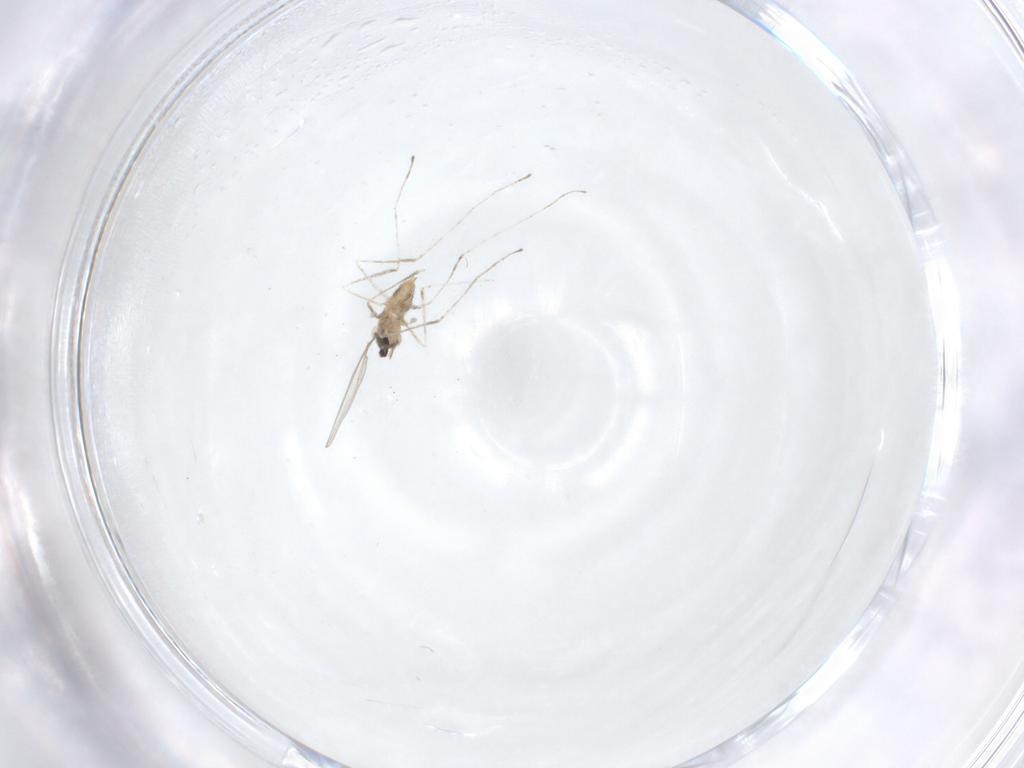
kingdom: Animalia
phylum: Arthropoda
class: Insecta
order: Diptera
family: Cecidomyiidae
